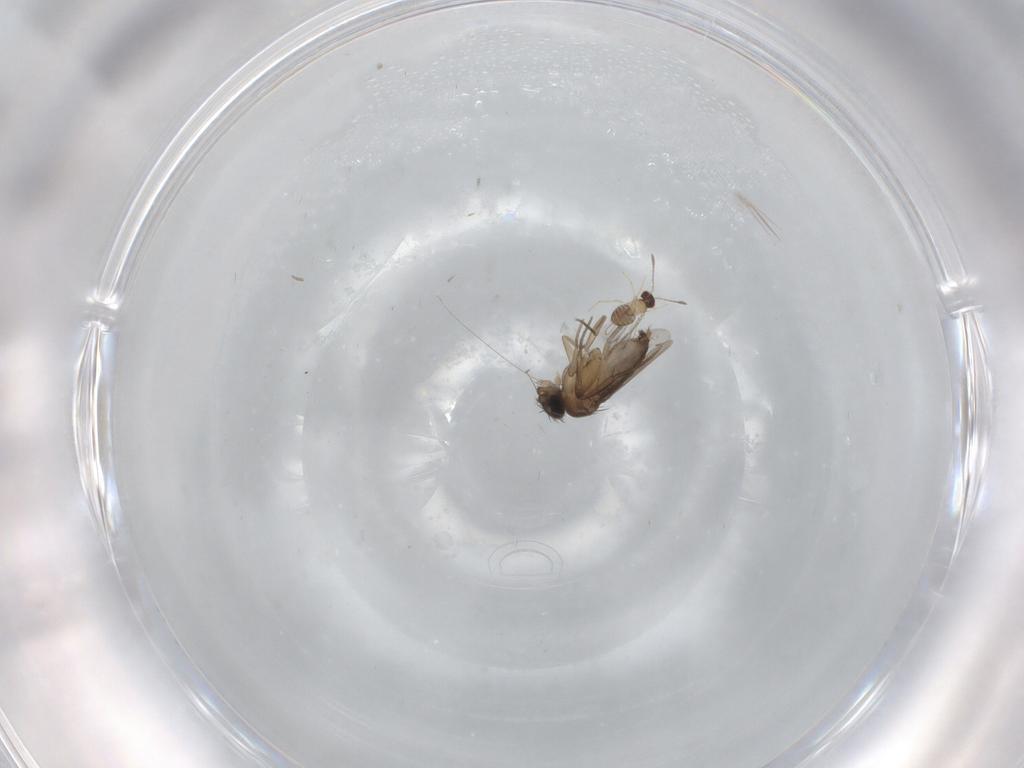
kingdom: Animalia
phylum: Arthropoda
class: Insecta
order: Diptera
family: Phoridae
